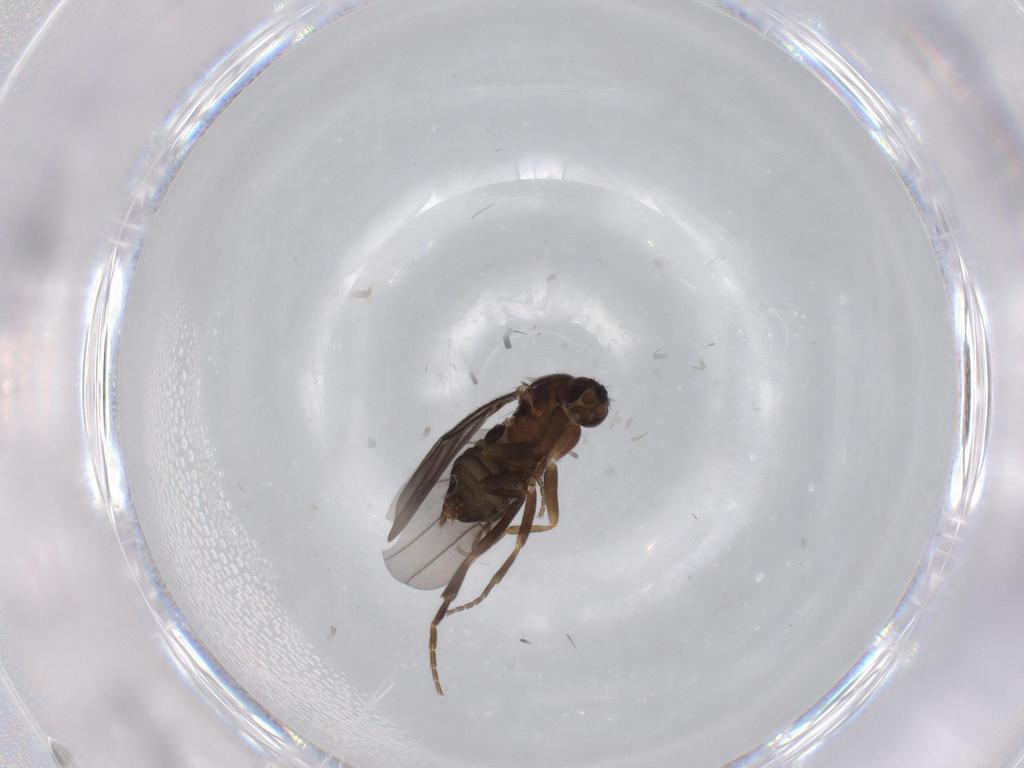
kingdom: Animalia
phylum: Arthropoda
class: Insecta
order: Diptera
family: Phoridae
